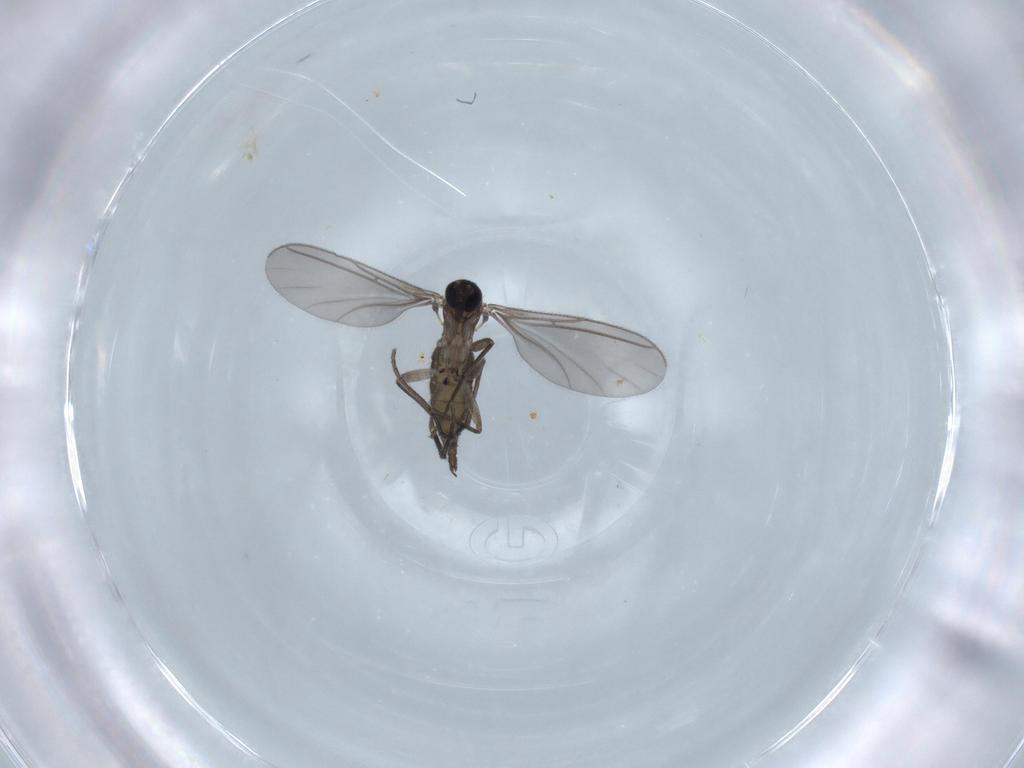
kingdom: Animalia
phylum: Arthropoda
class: Insecta
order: Diptera
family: Sciaridae
